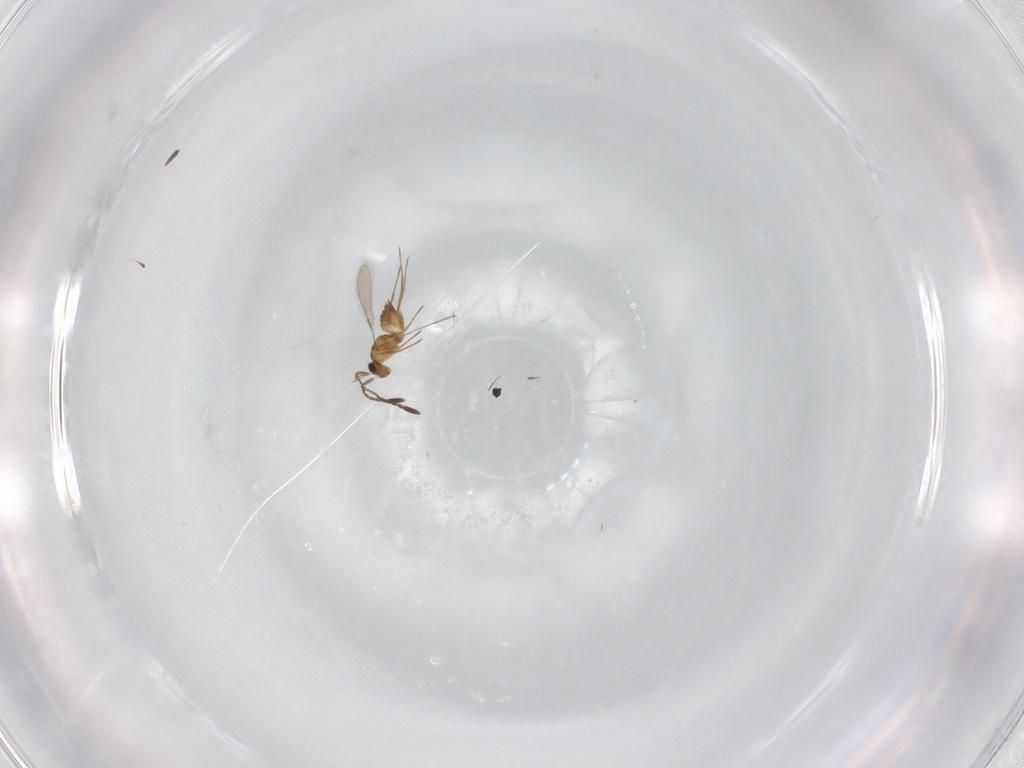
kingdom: Animalia
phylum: Arthropoda
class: Insecta
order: Hymenoptera
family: Mymaridae
